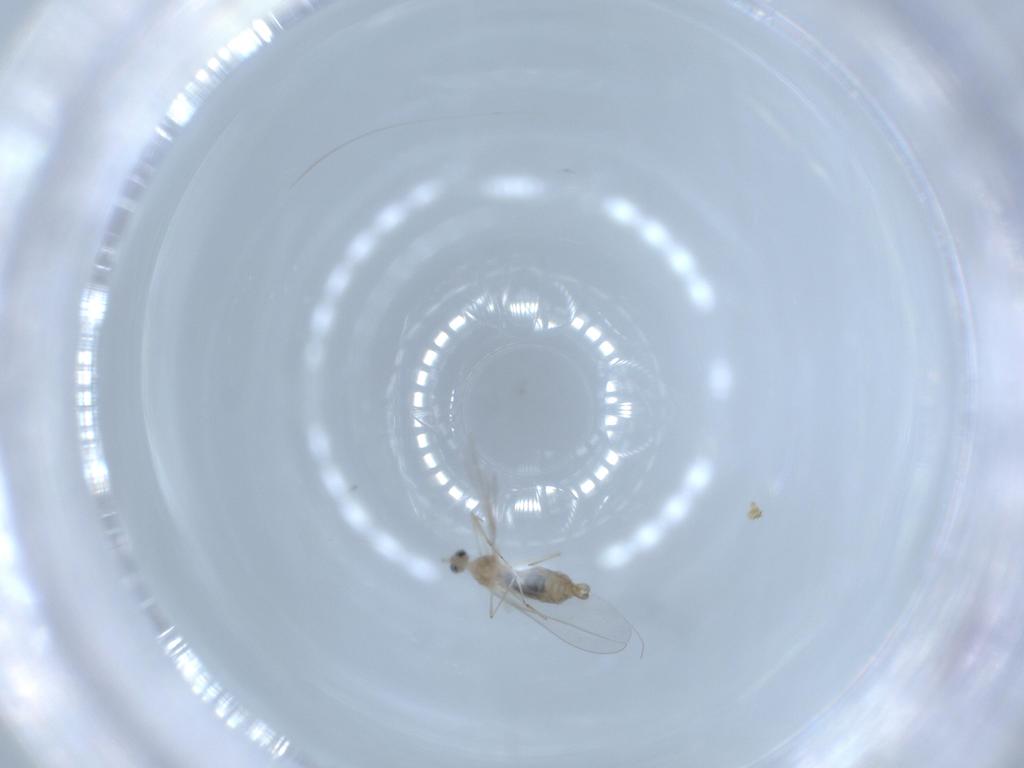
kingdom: Animalia
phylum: Arthropoda
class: Insecta
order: Diptera
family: Cecidomyiidae
